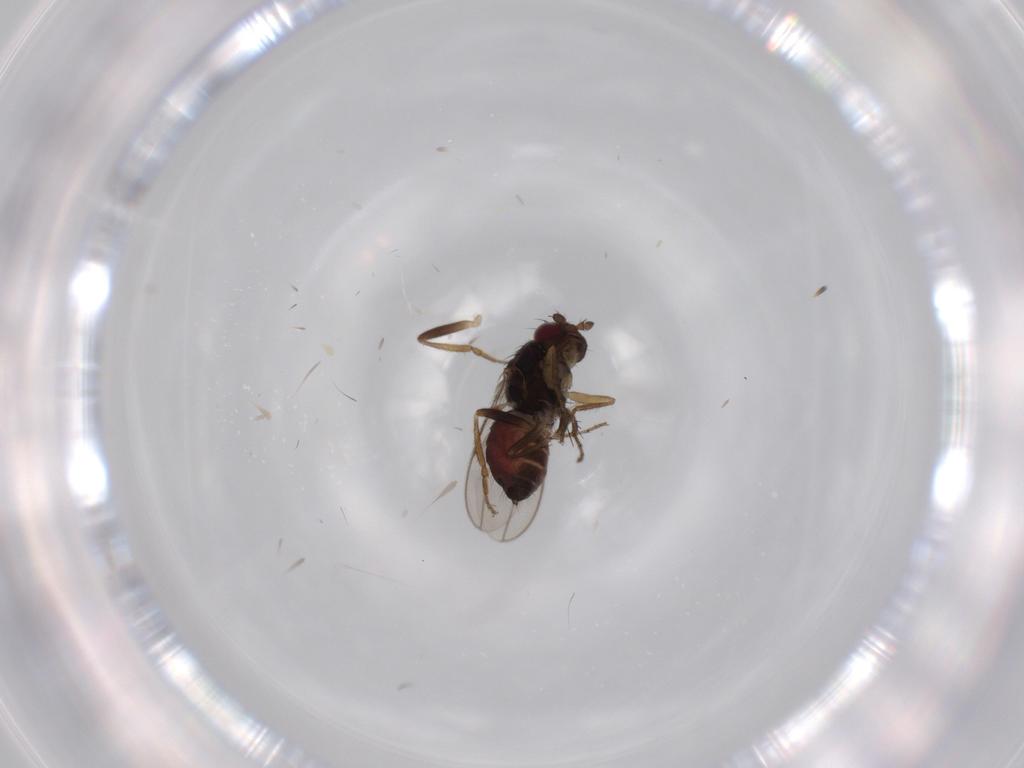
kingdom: Animalia
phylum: Arthropoda
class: Insecta
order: Diptera
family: Sphaeroceridae
